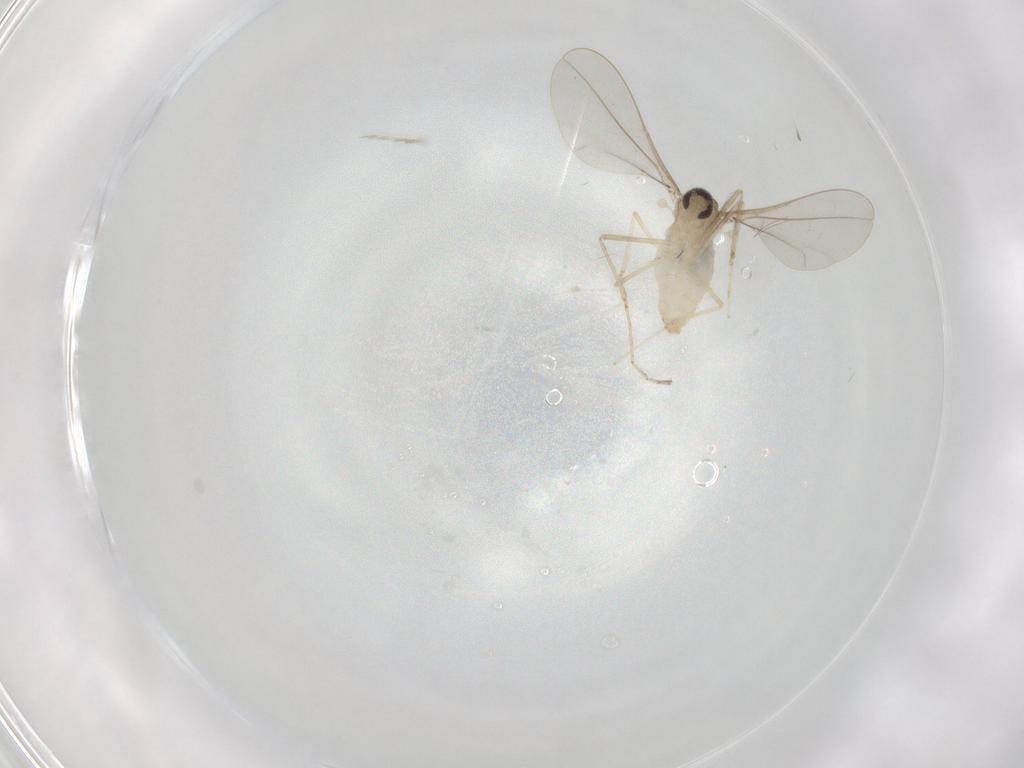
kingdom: Animalia
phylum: Arthropoda
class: Insecta
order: Diptera
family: Cecidomyiidae
